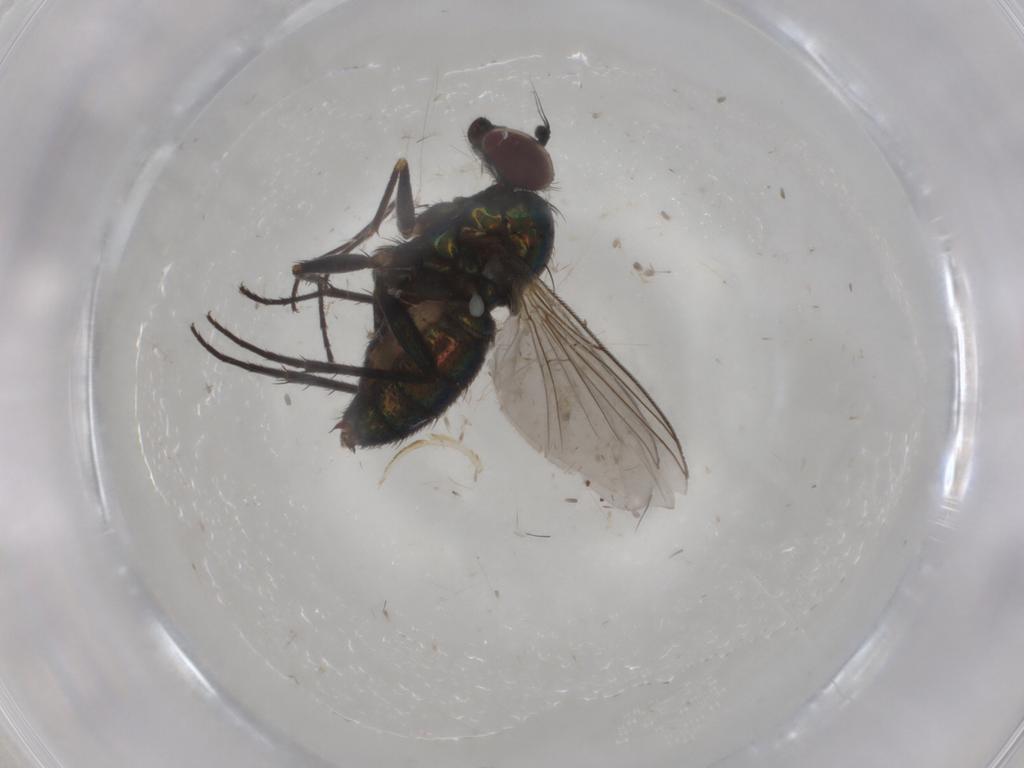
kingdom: Animalia
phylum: Arthropoda
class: Insecta
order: Diptera
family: Dolichopodidae
